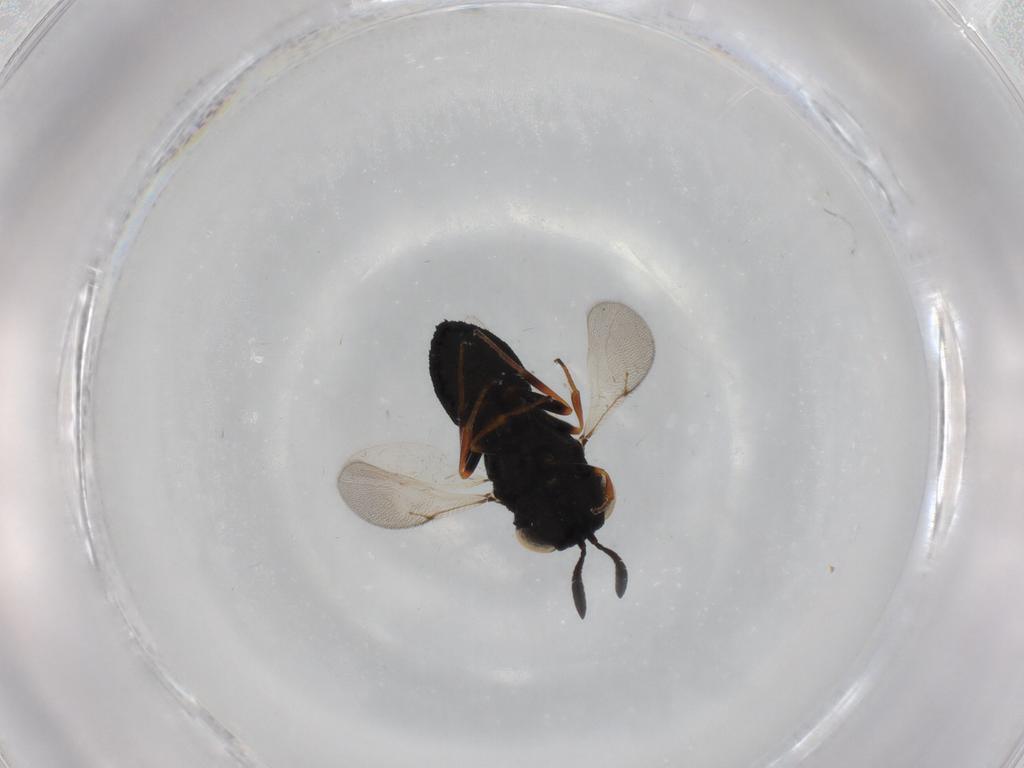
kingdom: Animalia
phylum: Arthropoda
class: Insecta
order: Hymenoptera
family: Scelionidae
